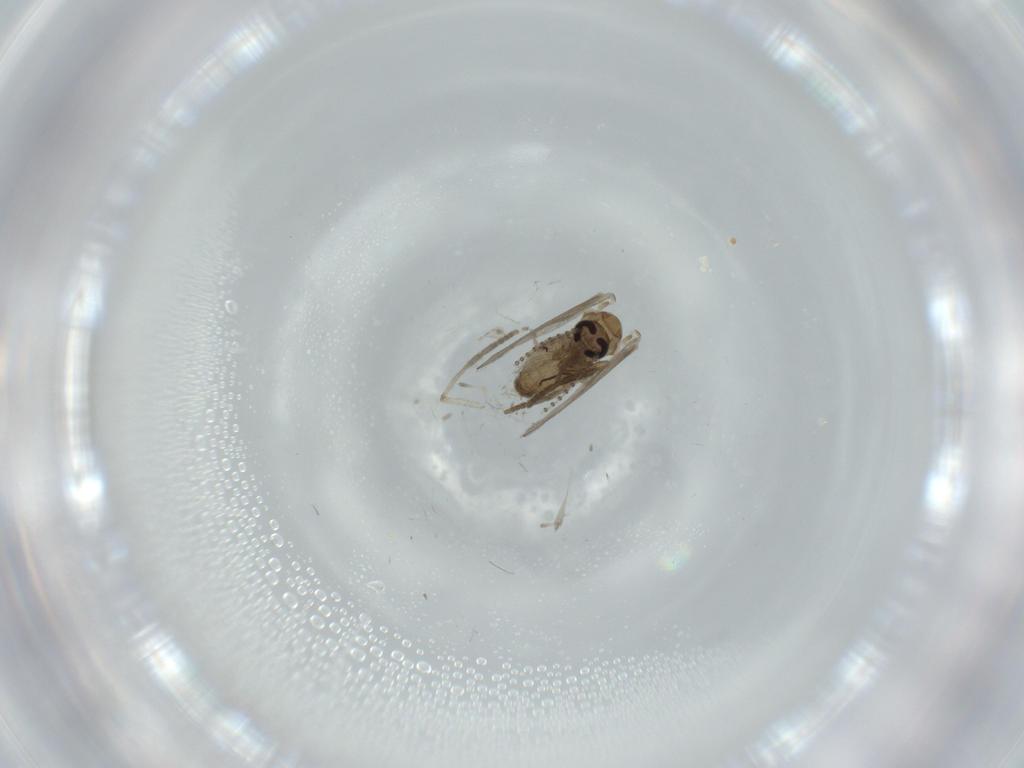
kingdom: Animalia
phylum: Arthropoda
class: Insecta
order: Diptera
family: Psychodidae
